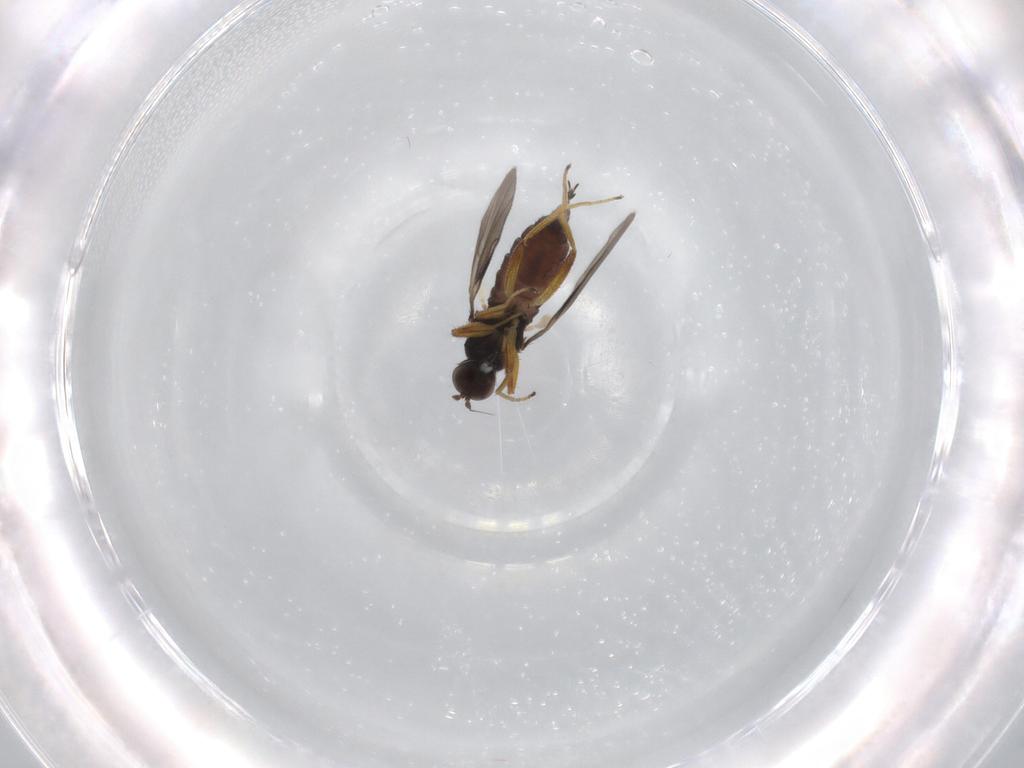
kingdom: Animalia
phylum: Arthropoda
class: Insecta
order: Diptera
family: Hybotidae
